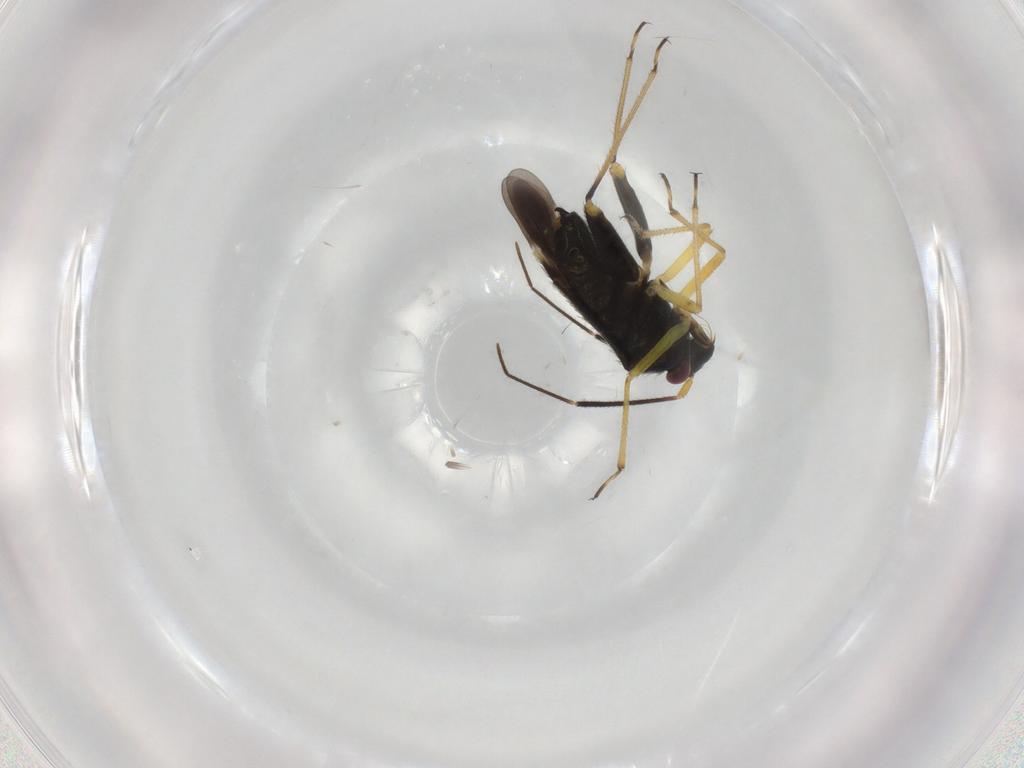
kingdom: Animalia
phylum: Arthropoda
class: Insecta
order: Hemiptera
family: Miridae
